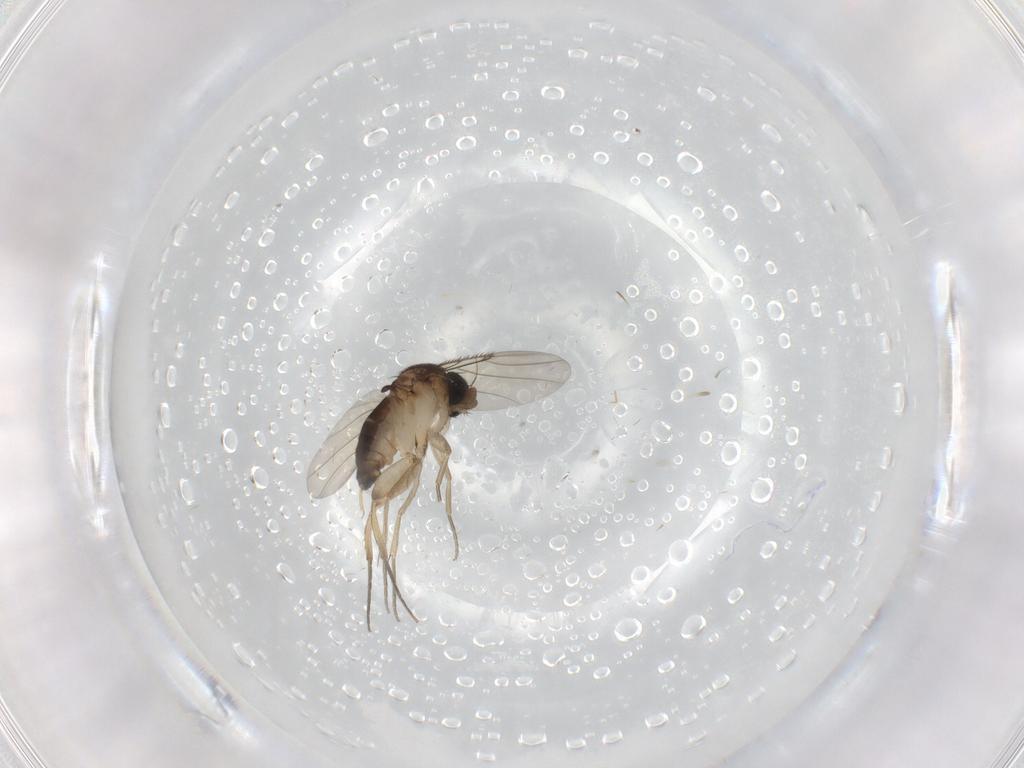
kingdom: Animalia
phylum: Arthropoda
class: Insecta
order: Diptera
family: Phoridae
